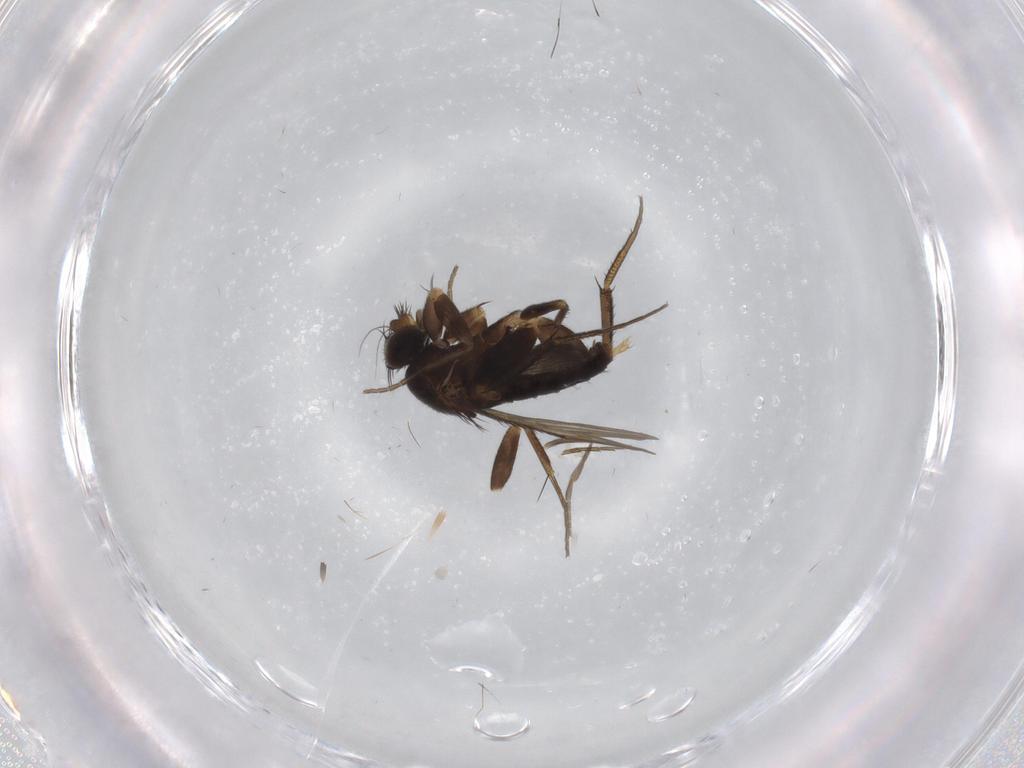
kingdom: Animalia
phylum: Arthropoda
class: Insecta
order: Diptera
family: Phoridae
